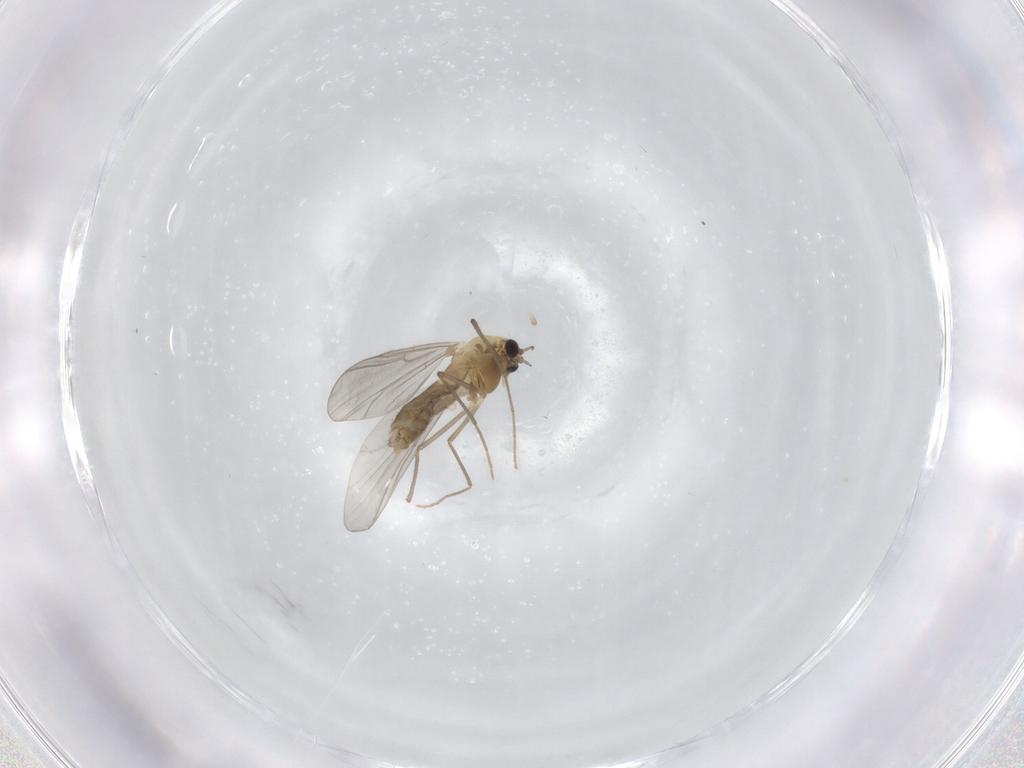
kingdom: Animalia
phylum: Arthropoda
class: Insecta
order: Diptera
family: Chironomidae
